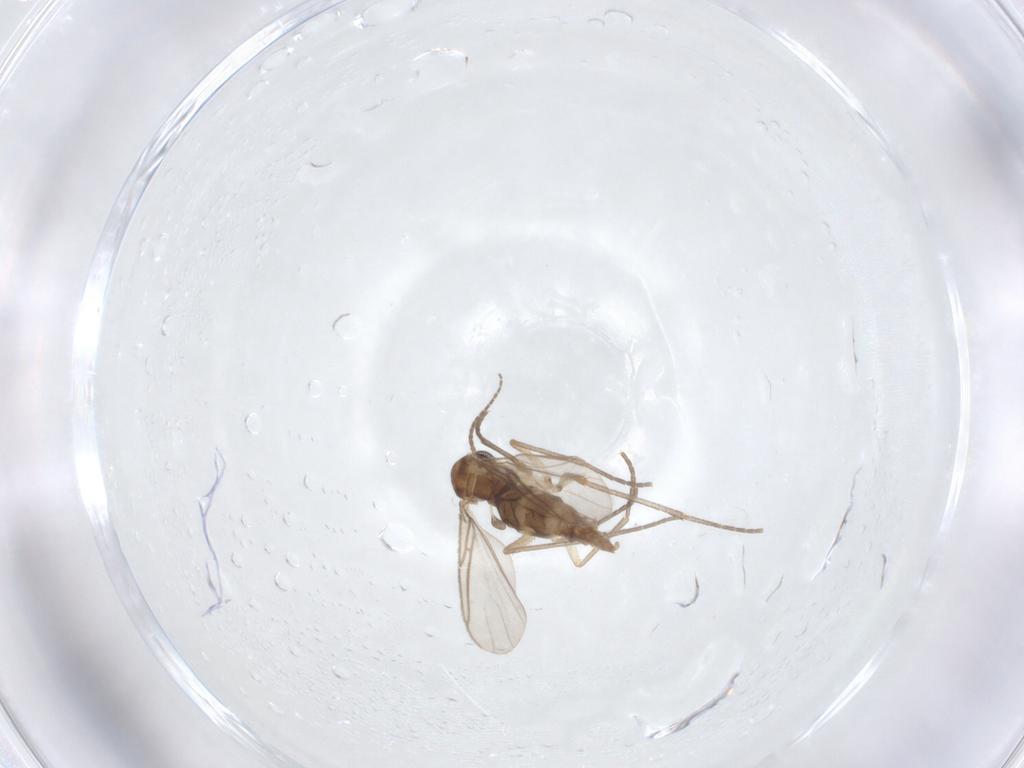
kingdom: Animalia
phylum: Arthropoda
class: Insecta
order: Diptera
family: Sciaridae
